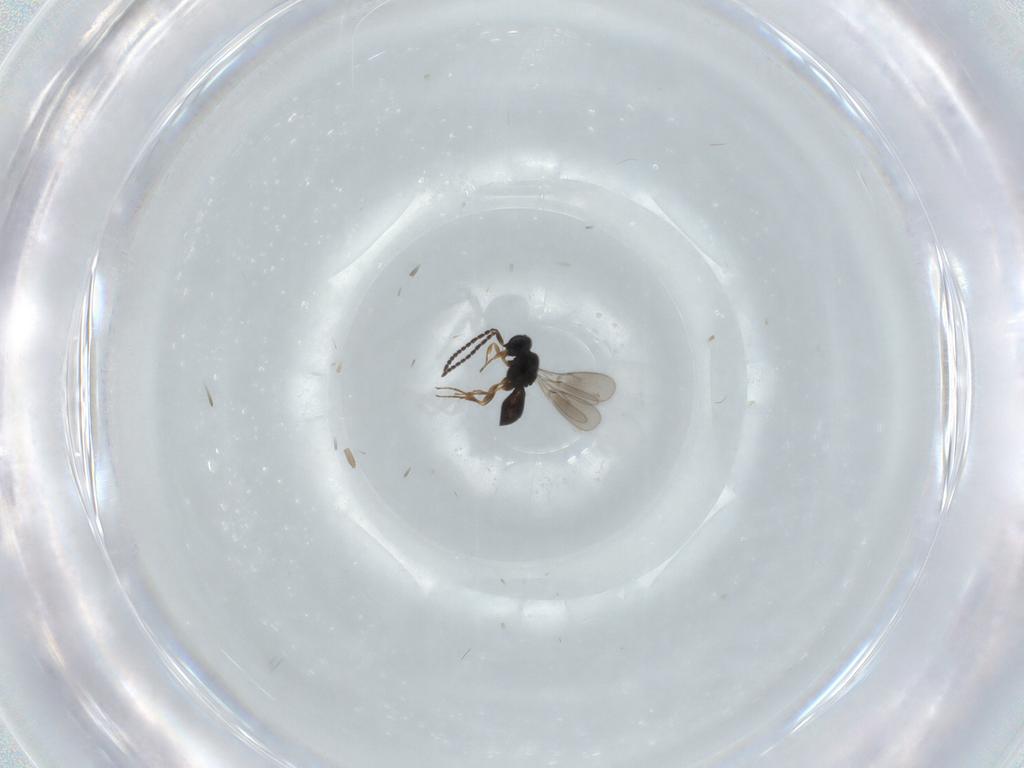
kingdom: Animalia
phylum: Arthropoda
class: Insecta
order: Hymenoptera
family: Scelionidae
